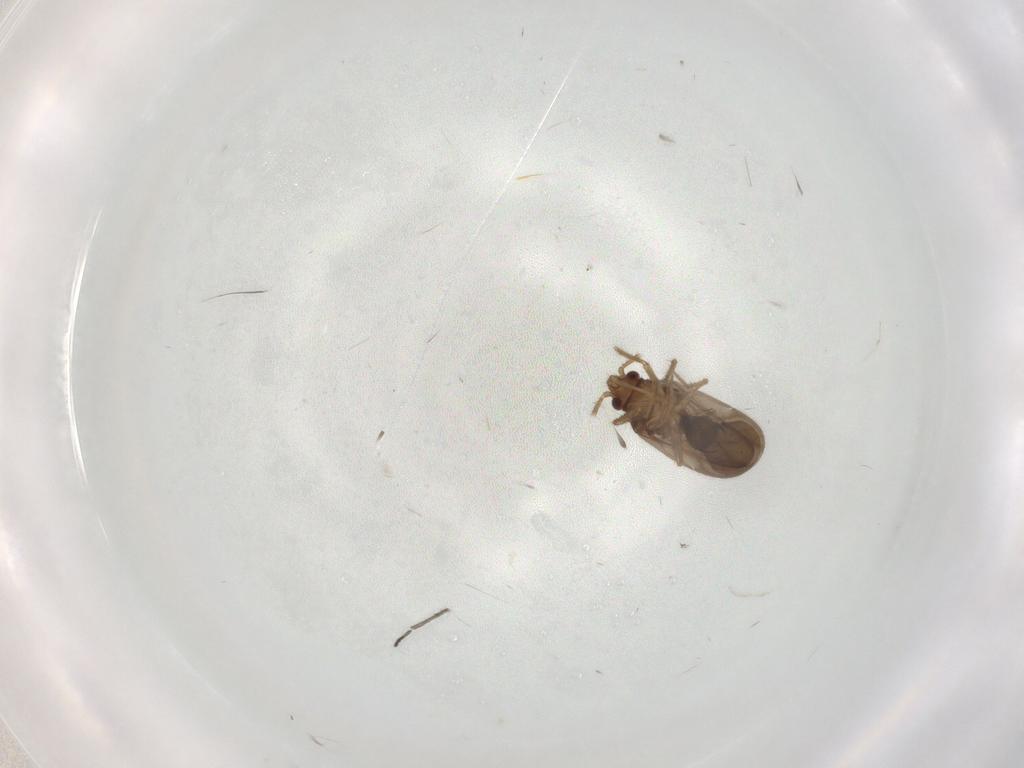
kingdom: Animalia
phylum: Arthropoda
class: Insecta
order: Hemiptera
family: Ceratocombidae
